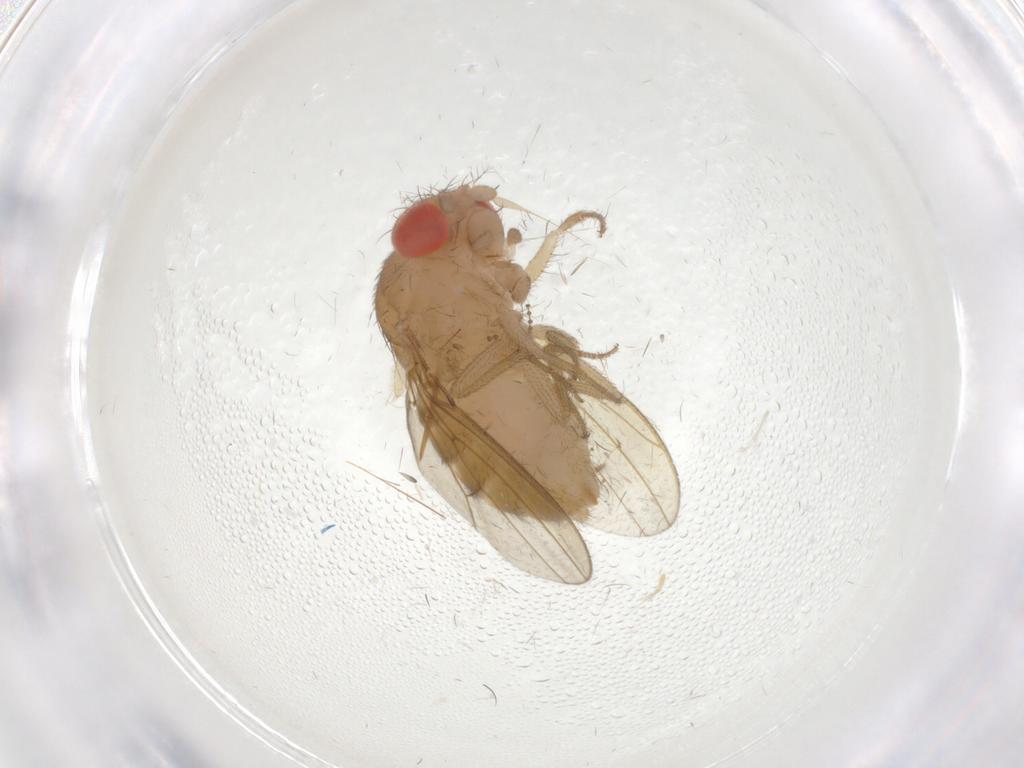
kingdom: Animalia
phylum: Arthropoda
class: Insecta
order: Diptera
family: Drosophilidae
